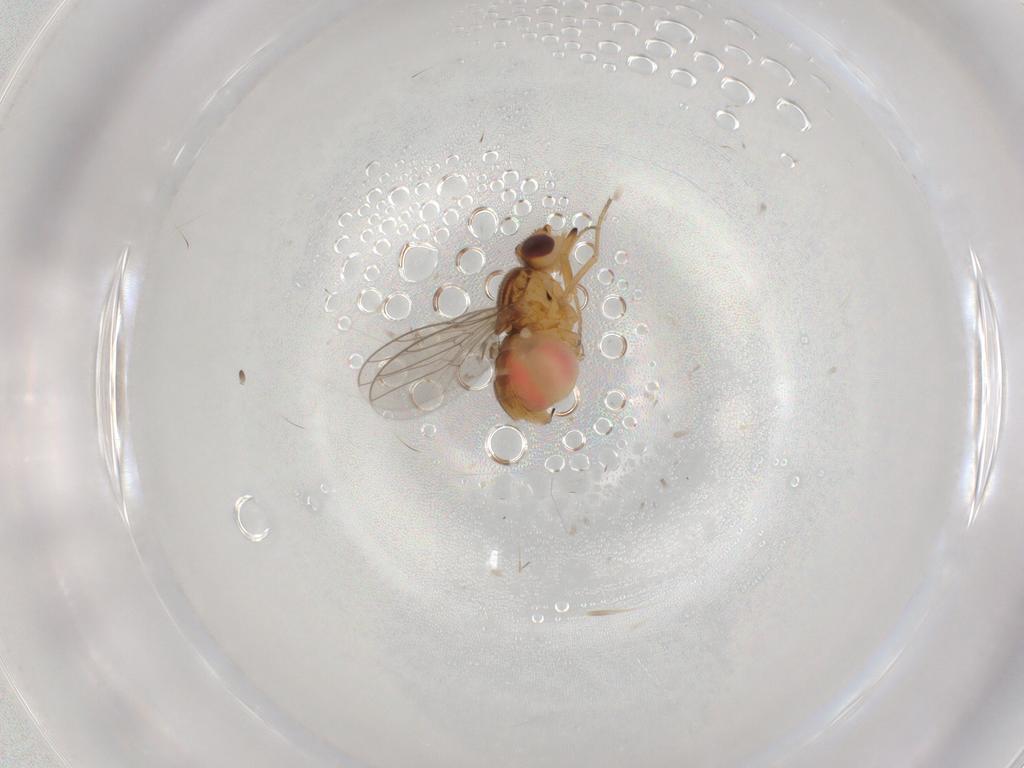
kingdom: Animalia
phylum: Arthropoda
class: Insecta
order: Diptera
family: Chloropidae
